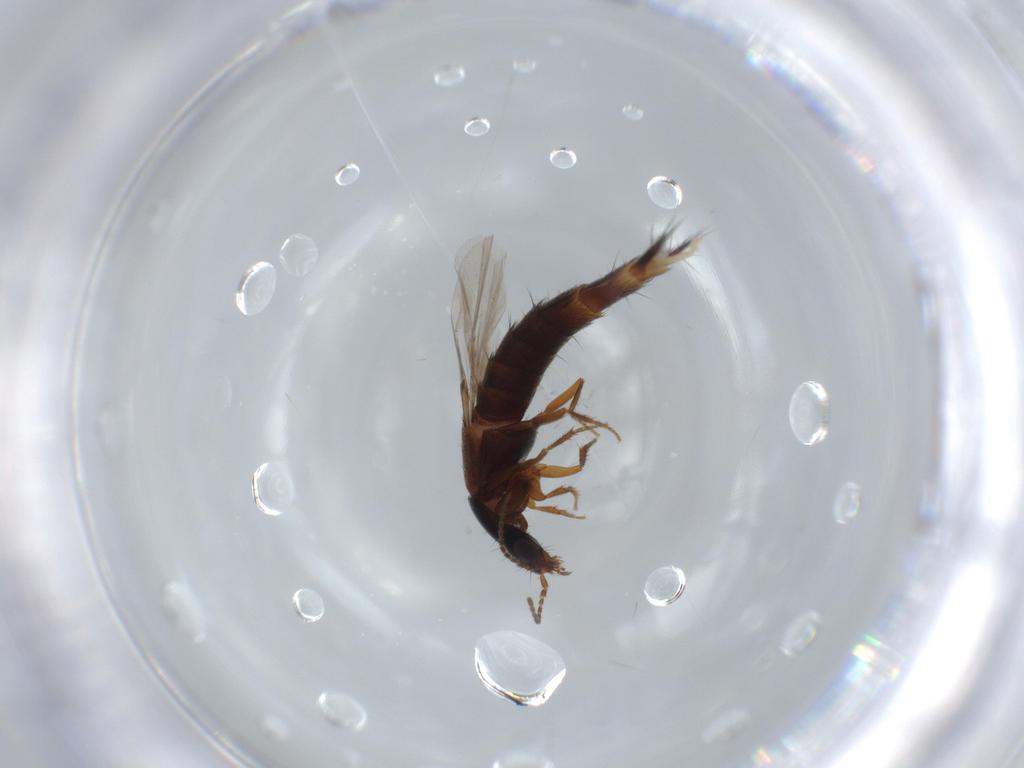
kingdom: Animalia
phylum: Arthropoda
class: Insecta
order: Coleoptera
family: Staphylinidae
